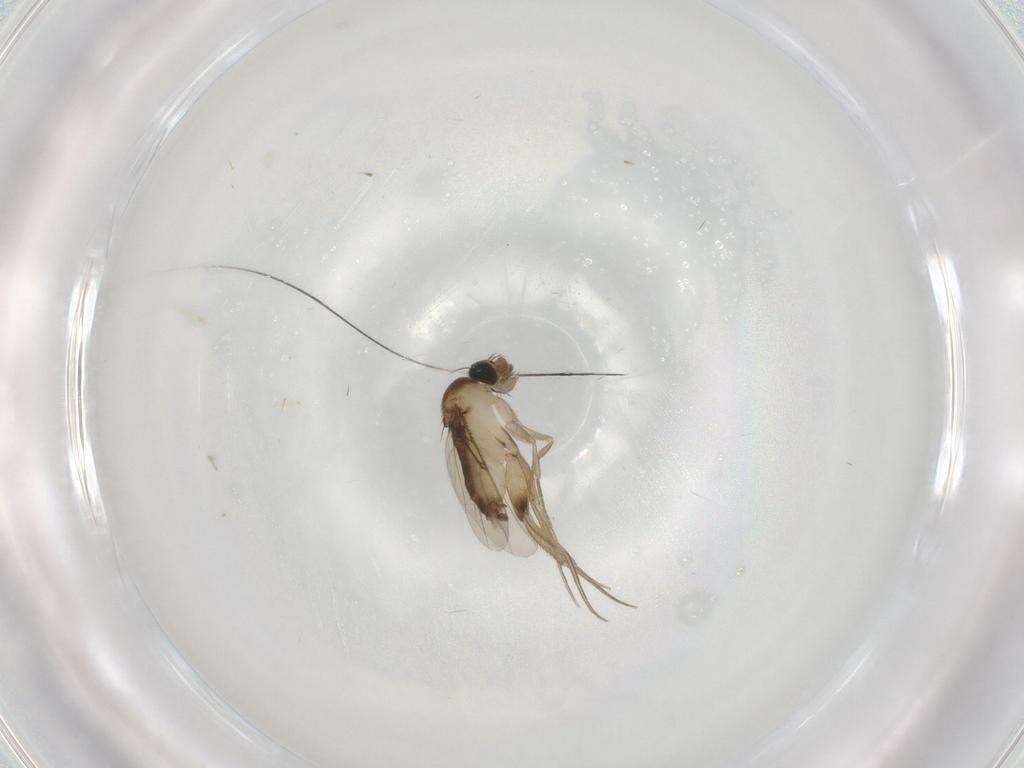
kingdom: Animalia
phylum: Arthropoda
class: Insecta
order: Diptera
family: Phoridae
